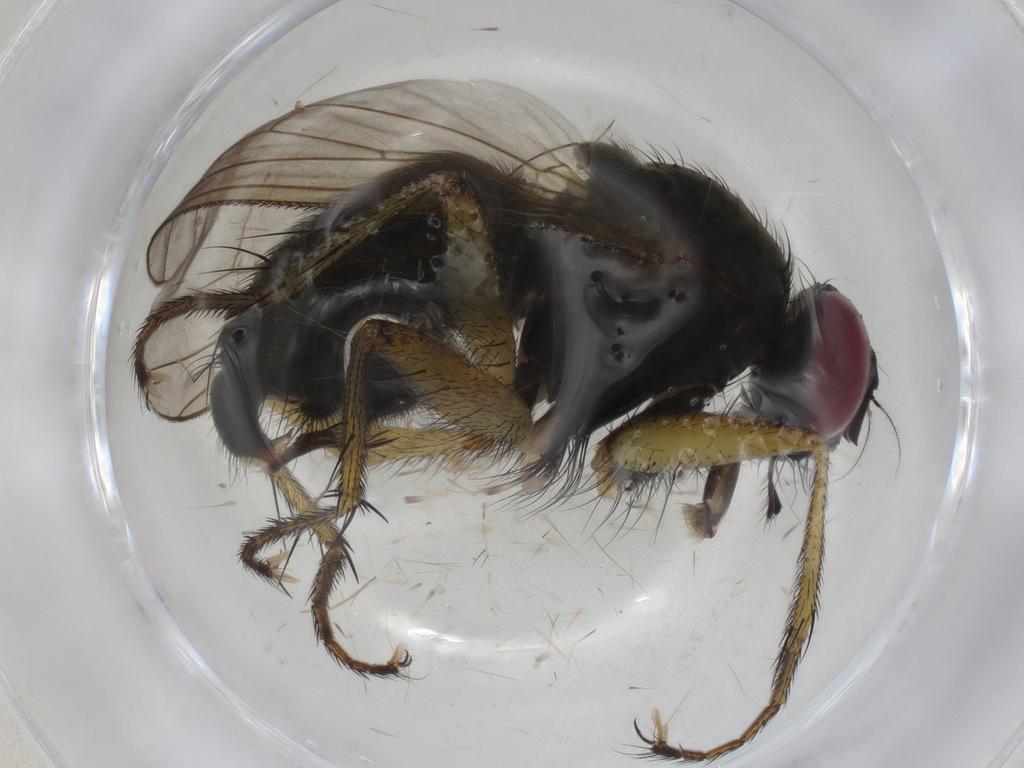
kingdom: Animalia
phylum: Arthropoda
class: Insecta
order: Diptera
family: Muscidae
